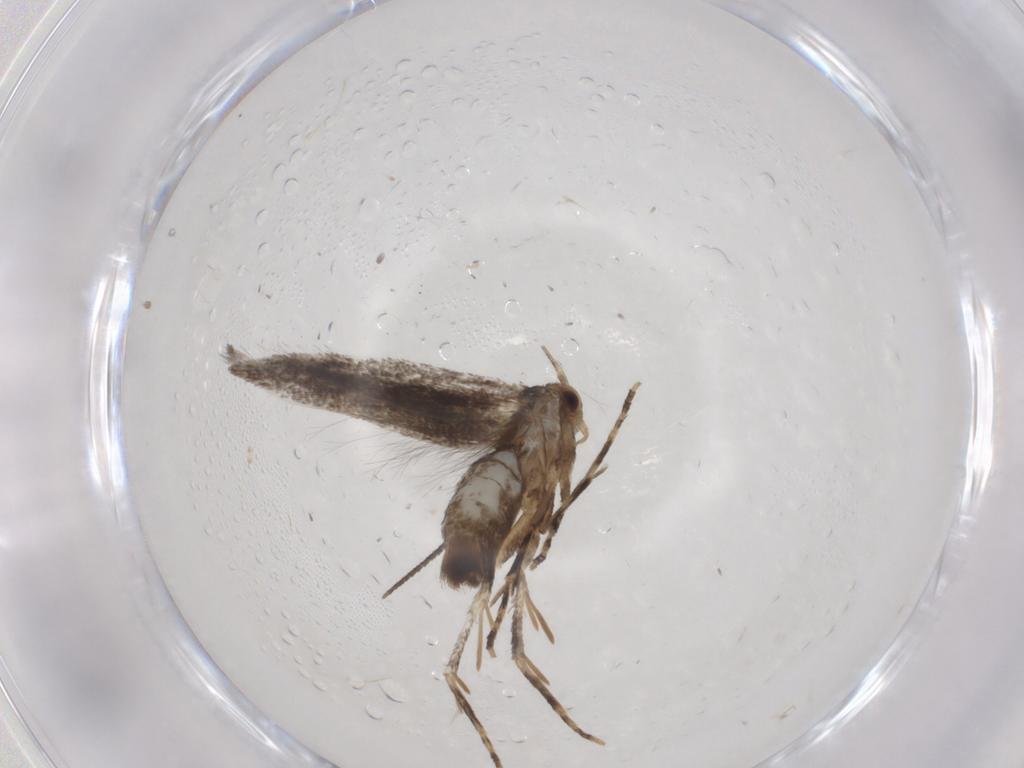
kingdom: Animalia
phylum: Arthropoda
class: Insecta
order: Lepidoptera
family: Elachistidae
